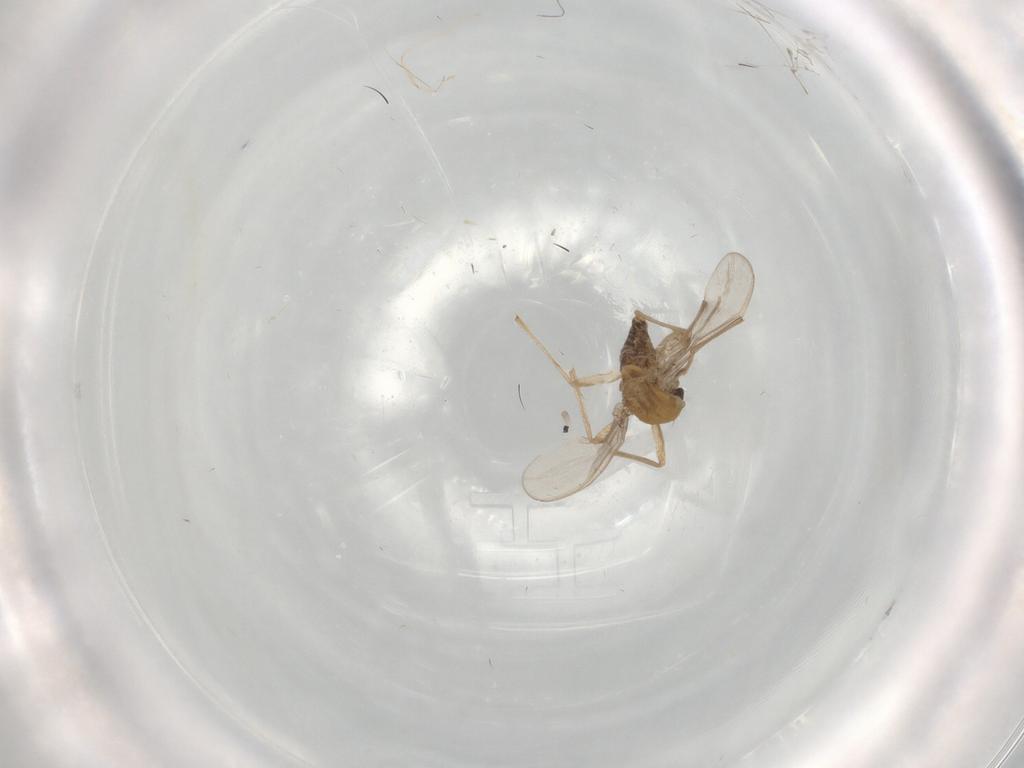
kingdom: Animalia
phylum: Arthropoda
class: Insecta
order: Diptera
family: Chironomidae
